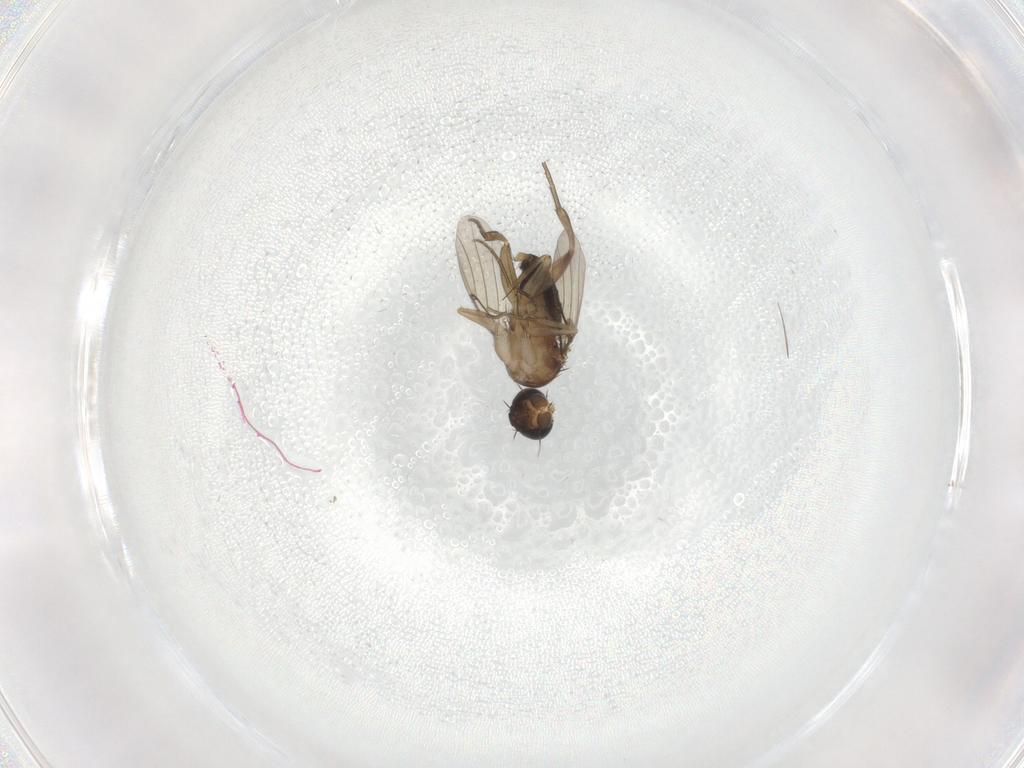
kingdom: Animalia
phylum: Arthropoda
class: Insecta
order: Diptera
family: Phoridae
